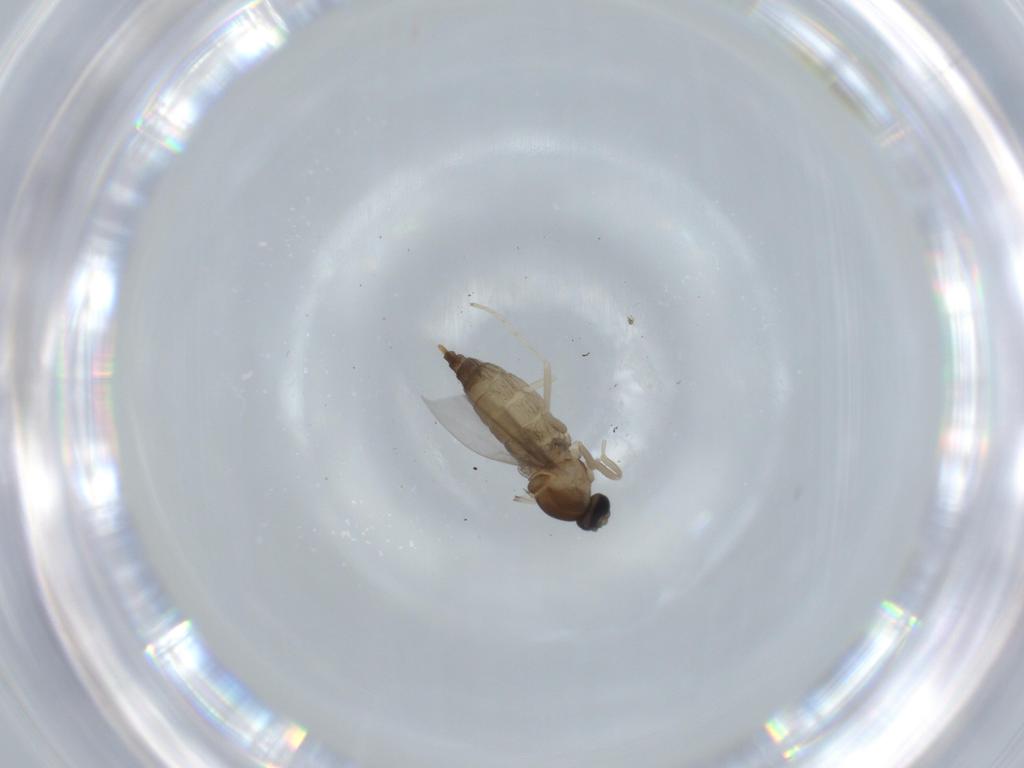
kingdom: Animalia
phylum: Arthropoda
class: Insecta
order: Diptera
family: Cecidomyiidae
